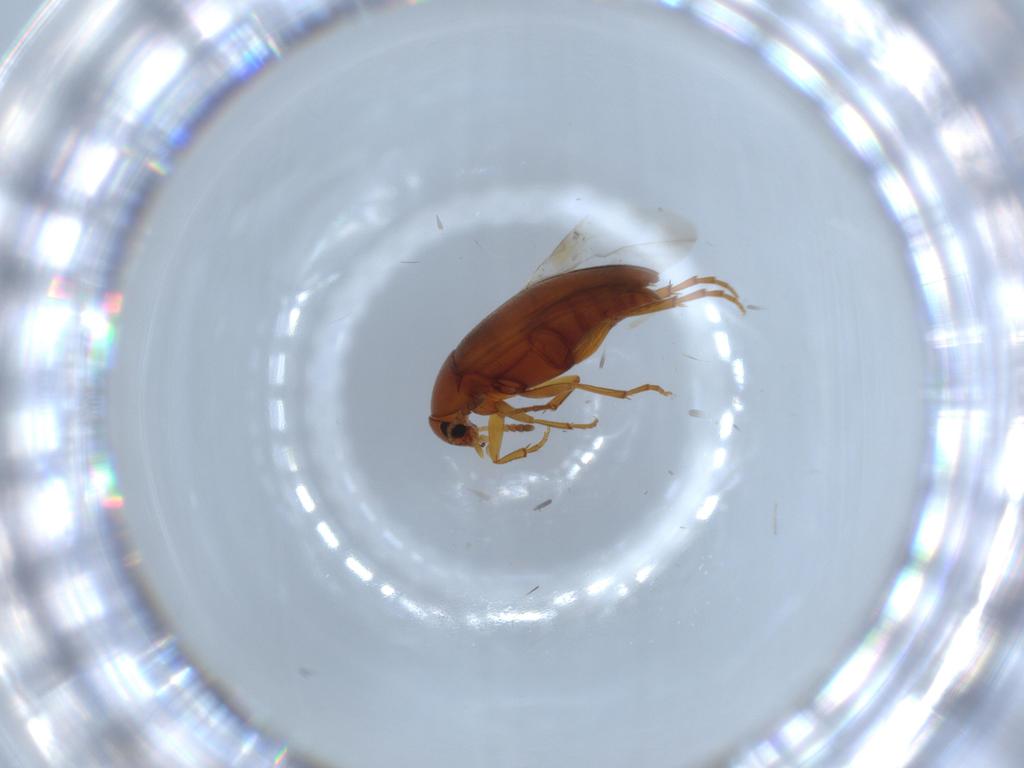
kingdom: Animalia
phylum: Arthropoda
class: Insecta
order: Coleoptera
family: Scraptiidae
